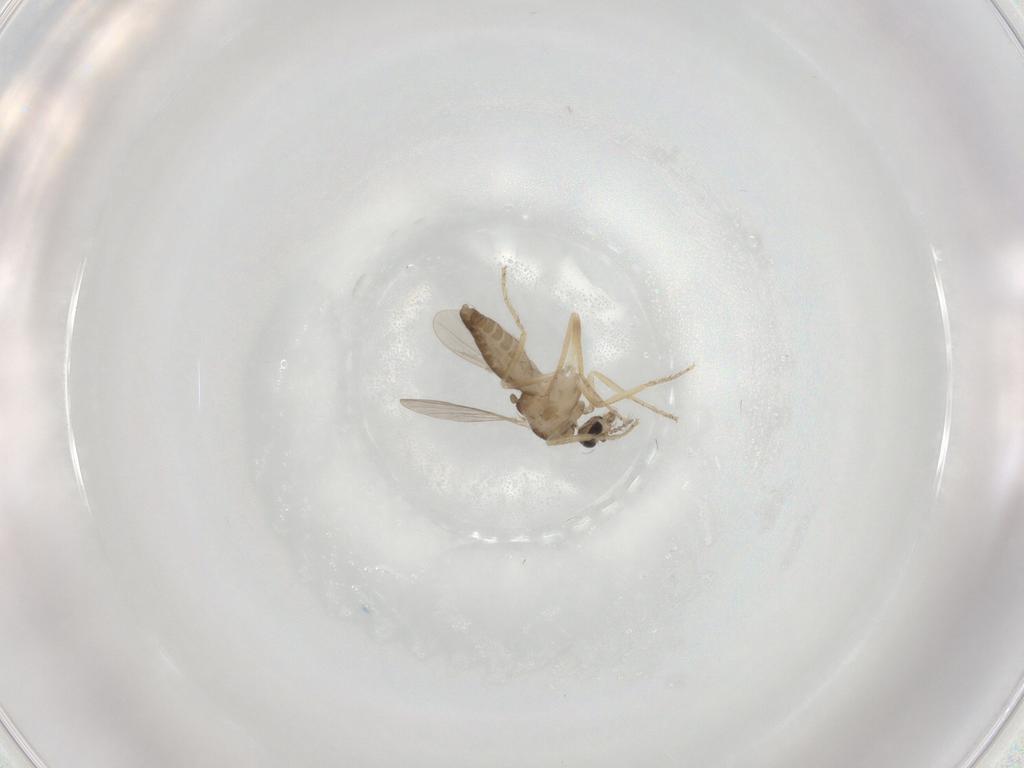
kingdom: Animalia
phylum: Arthropoda
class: Insecta
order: Diptera
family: Ceratopogonidae
